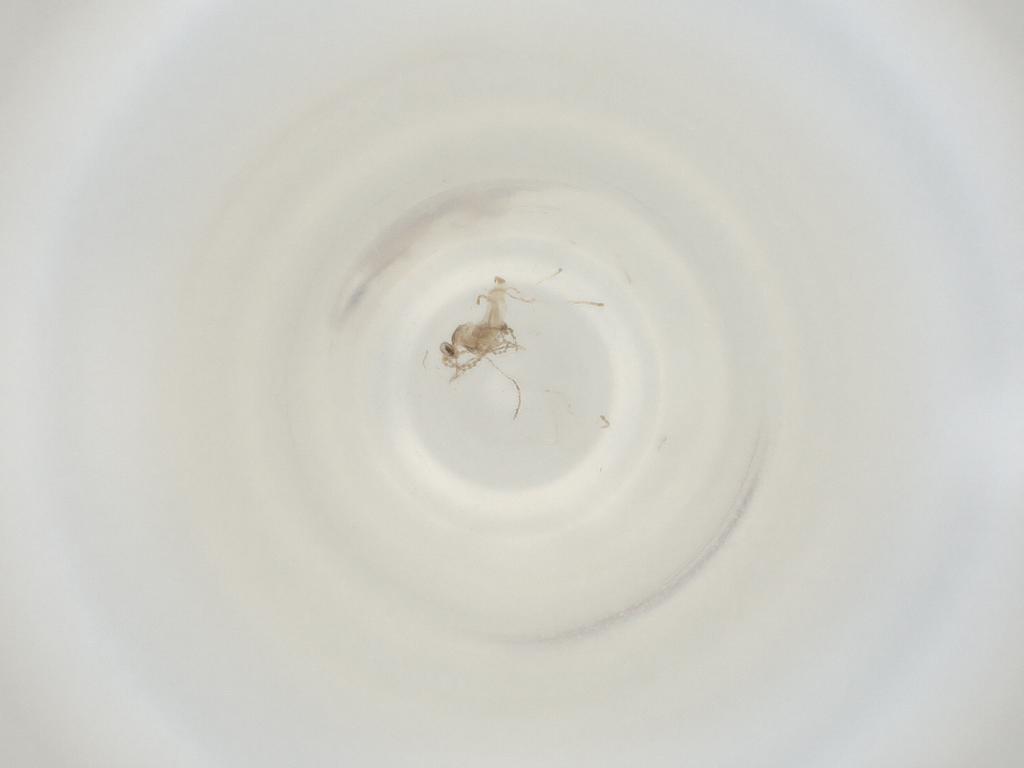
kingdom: Animalia
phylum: Arthropoda
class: Insecta
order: Diptera
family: Cecidomyiidae
